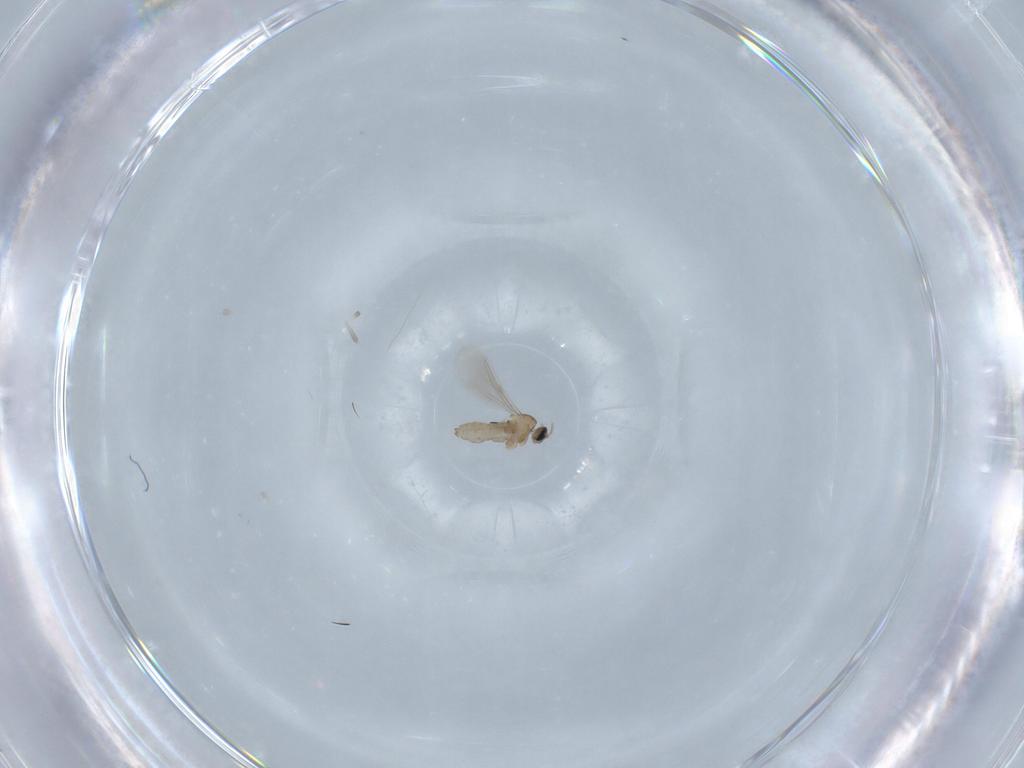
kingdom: Animalia
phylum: Arthropoda
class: Insecta
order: Diptera
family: Cecidomyiidae
